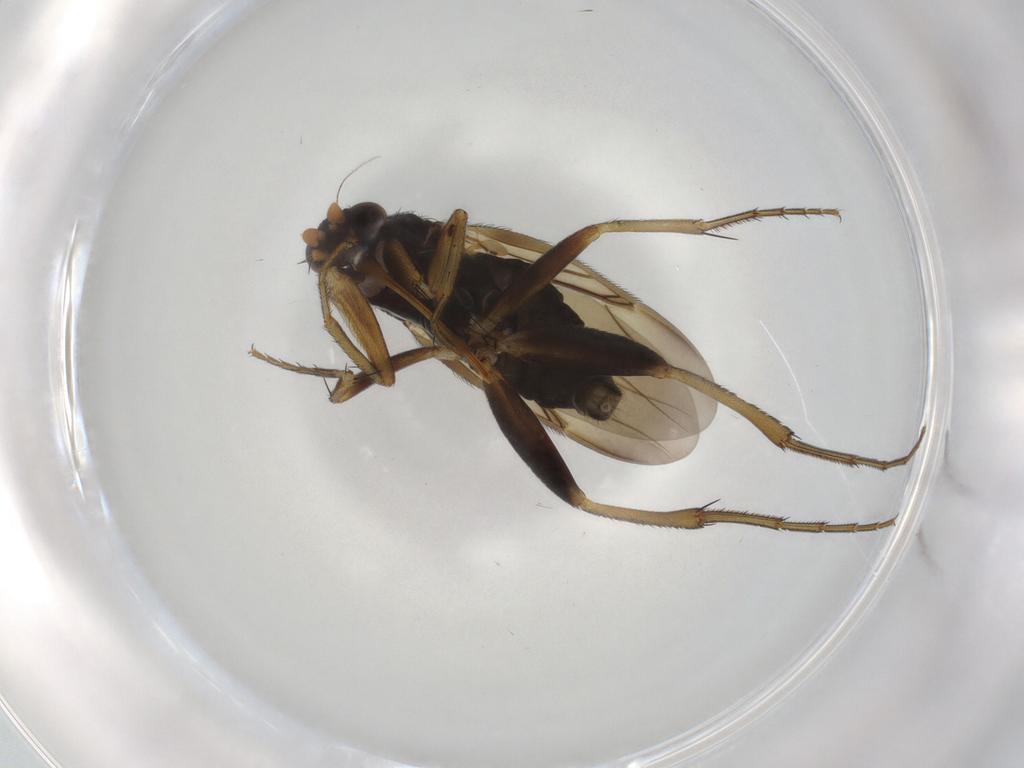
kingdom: Animalia
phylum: Arthropoda
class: Insecta
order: Diptera
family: Phoridae
